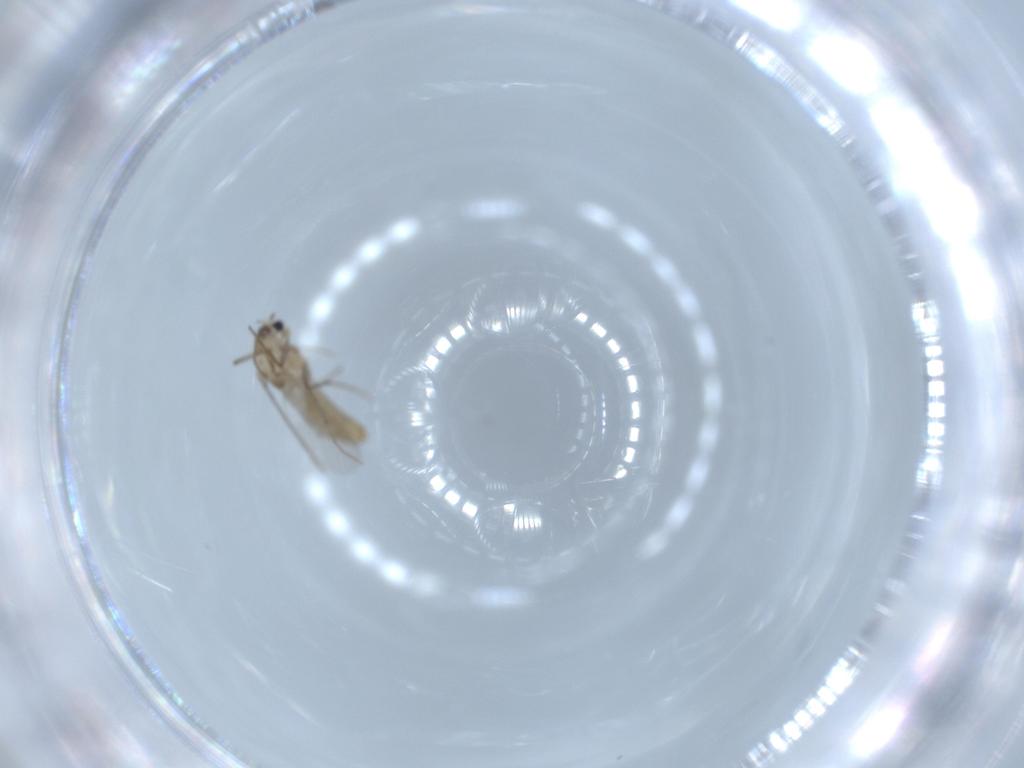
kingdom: Animalia
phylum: Arthropoda
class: Insecta
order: Diptera
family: Chironomidae
